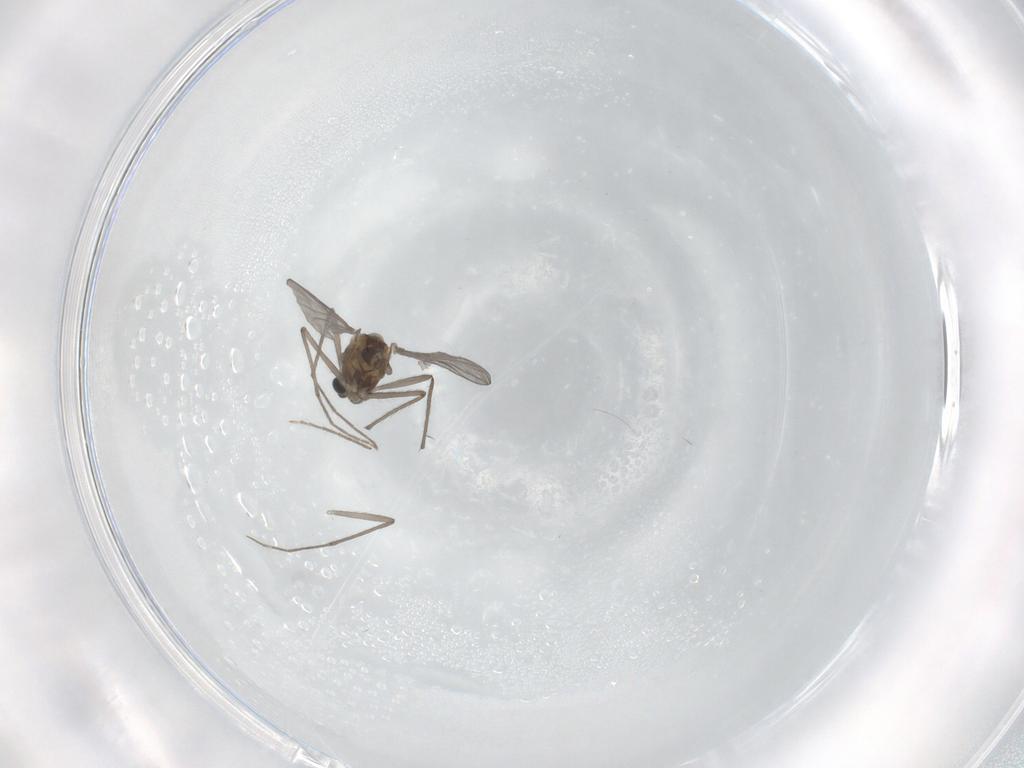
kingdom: Animalia
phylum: Arthropoda
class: Insecta
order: Diptera
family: Chironomidae
